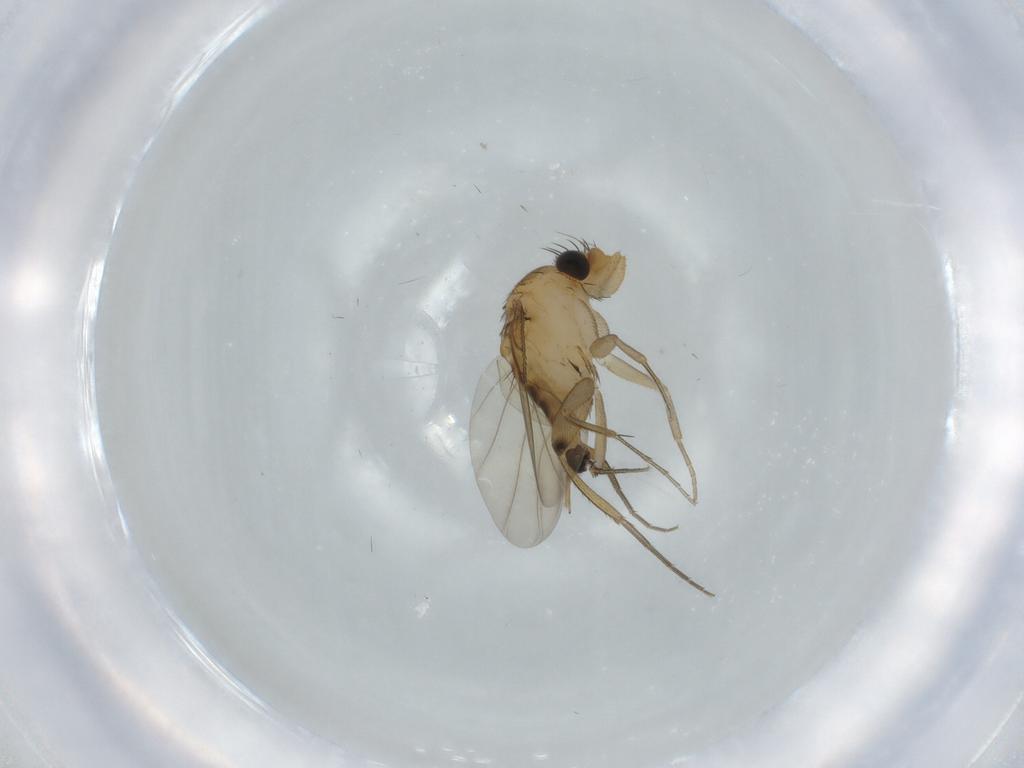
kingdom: Animalia
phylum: Arthropoda
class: Insecta
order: Diptera
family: Phoridae
